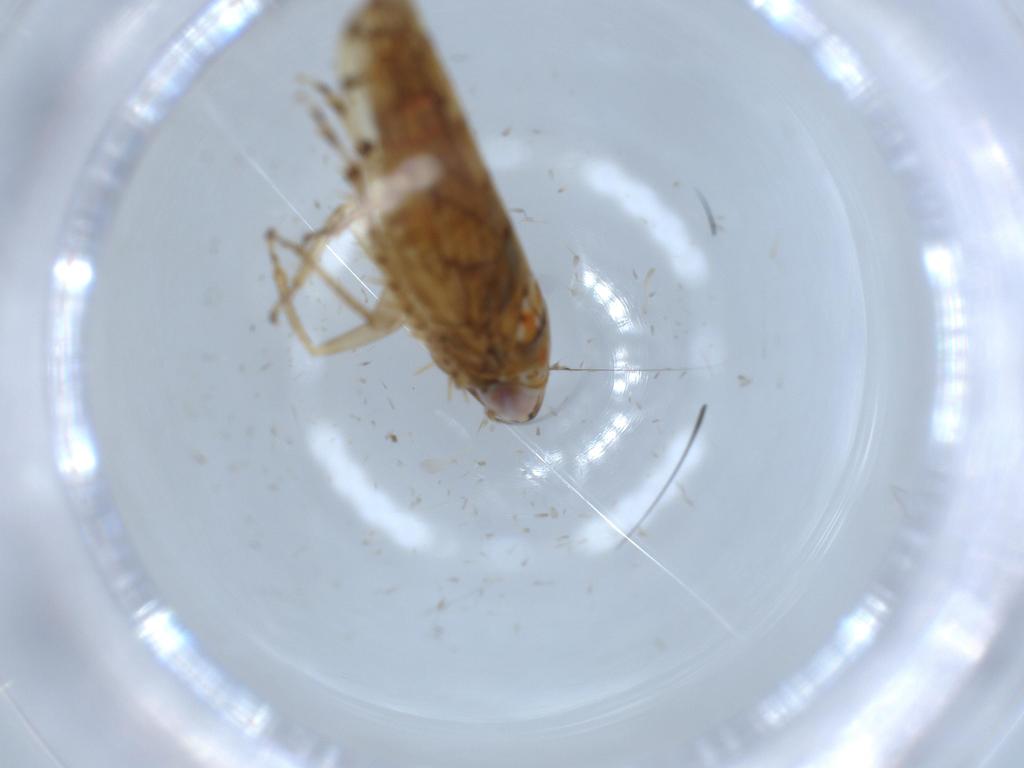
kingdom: Animalia
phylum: Arthropoda
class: Insecta
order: Hemiptera
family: Cicadellidae
